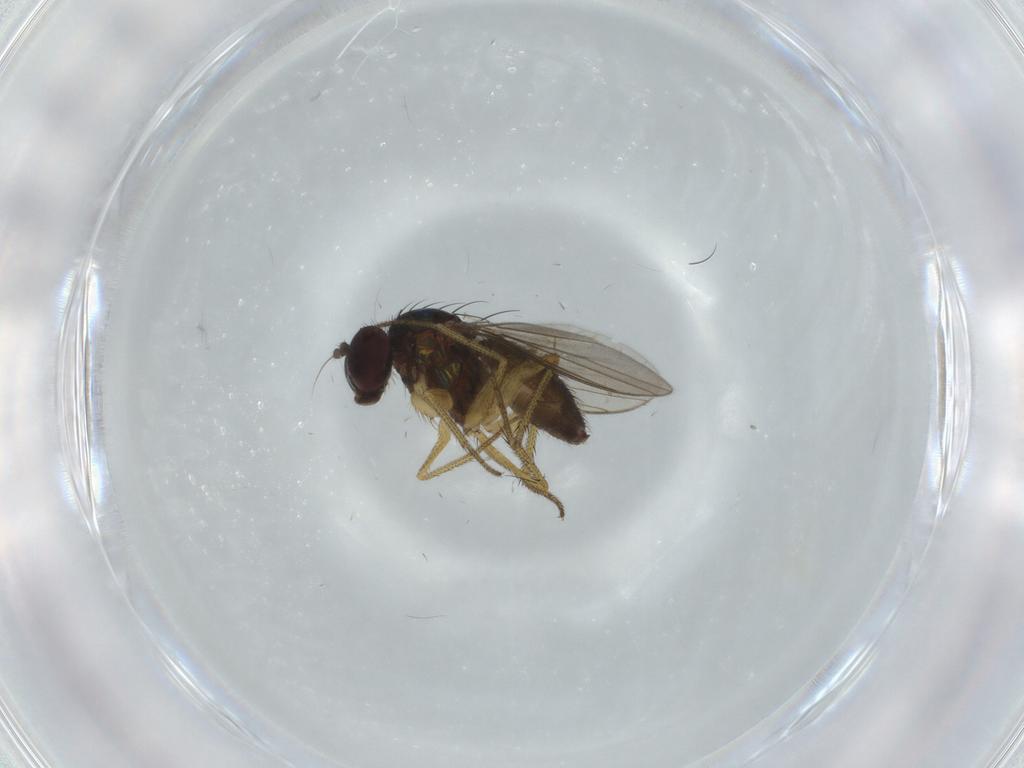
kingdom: Animalia
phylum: Arthropoda
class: Insecta
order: Diptera
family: Dolichopodidae
